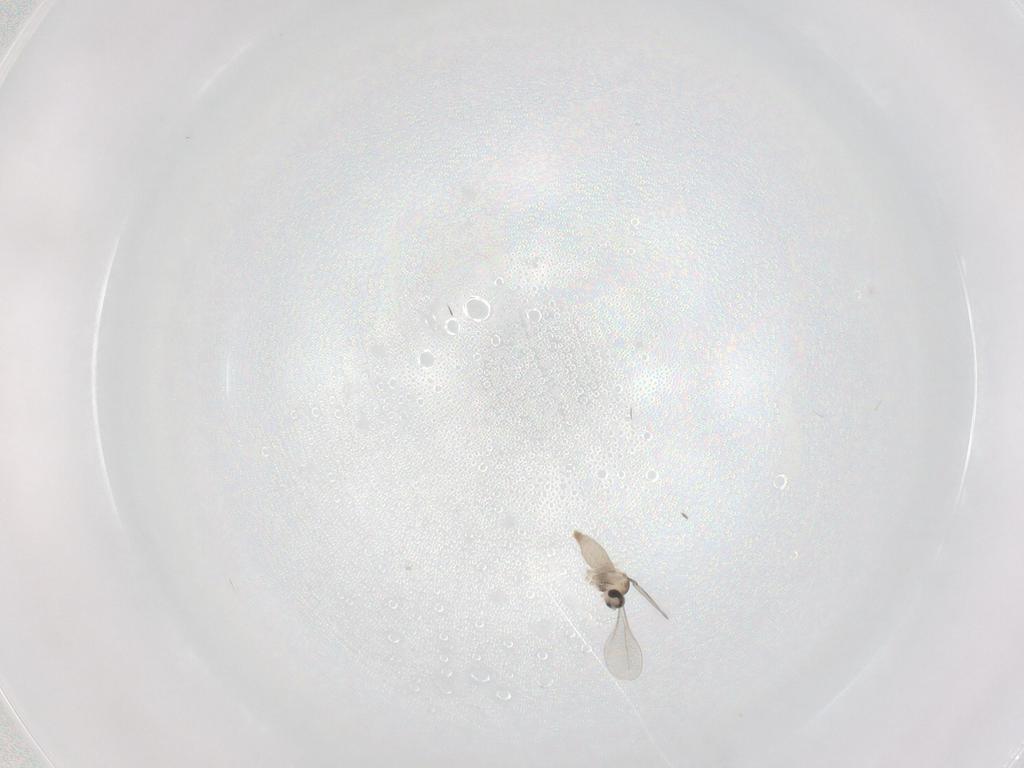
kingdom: Animalia
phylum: Arthropoda
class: Insecta
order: Diptera
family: Cecidomyiidae
